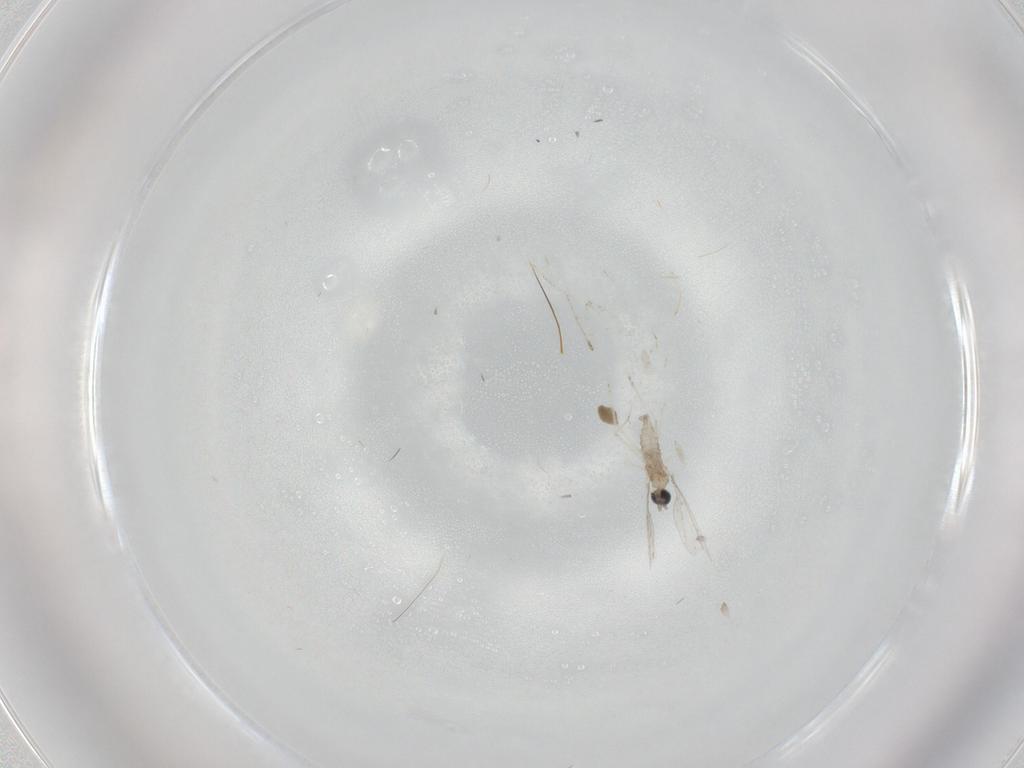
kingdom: Animalia
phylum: Arthropoda
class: Insecta
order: Diptera
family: Cecidomyiidae
